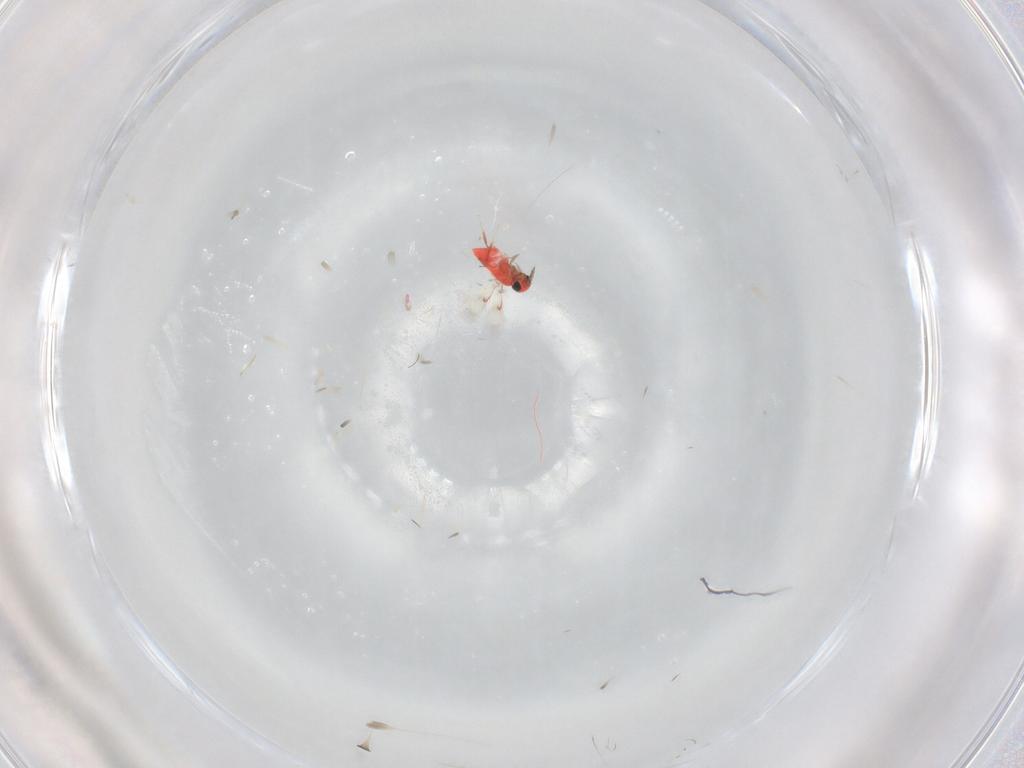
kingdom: Animalia
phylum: Arthropoda
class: Insecta
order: Hymenoptera
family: Trichogrammatidae
